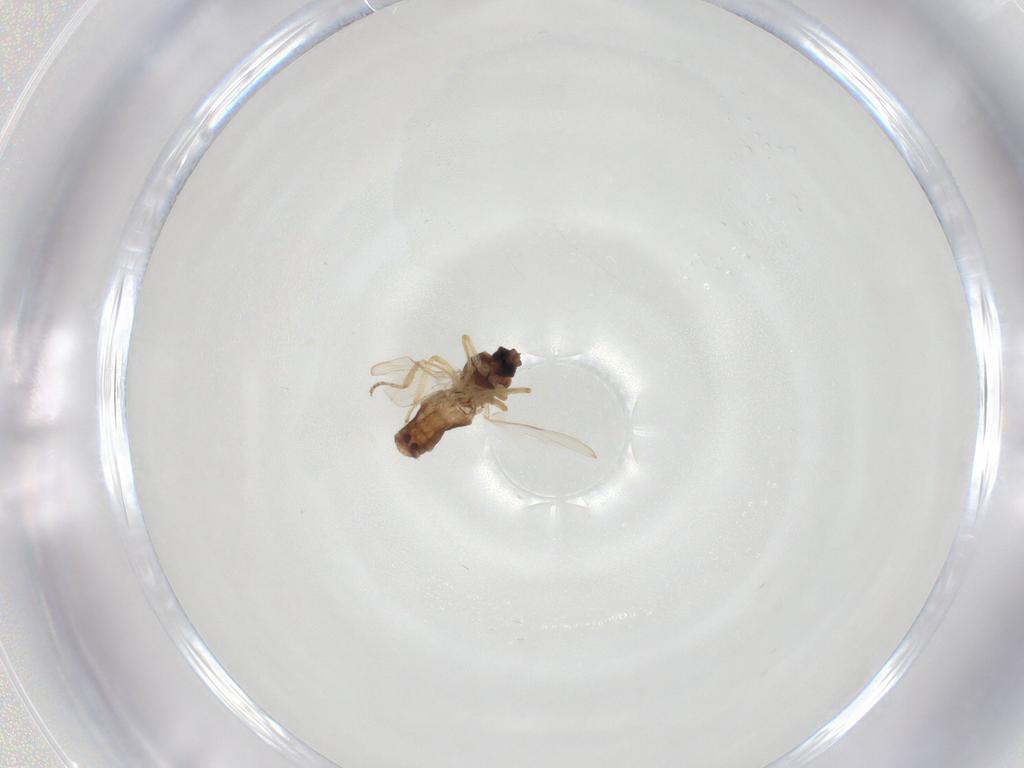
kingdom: Animalia
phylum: Arthropoda
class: Insecta
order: Diptera
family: Ceratopogonidae
